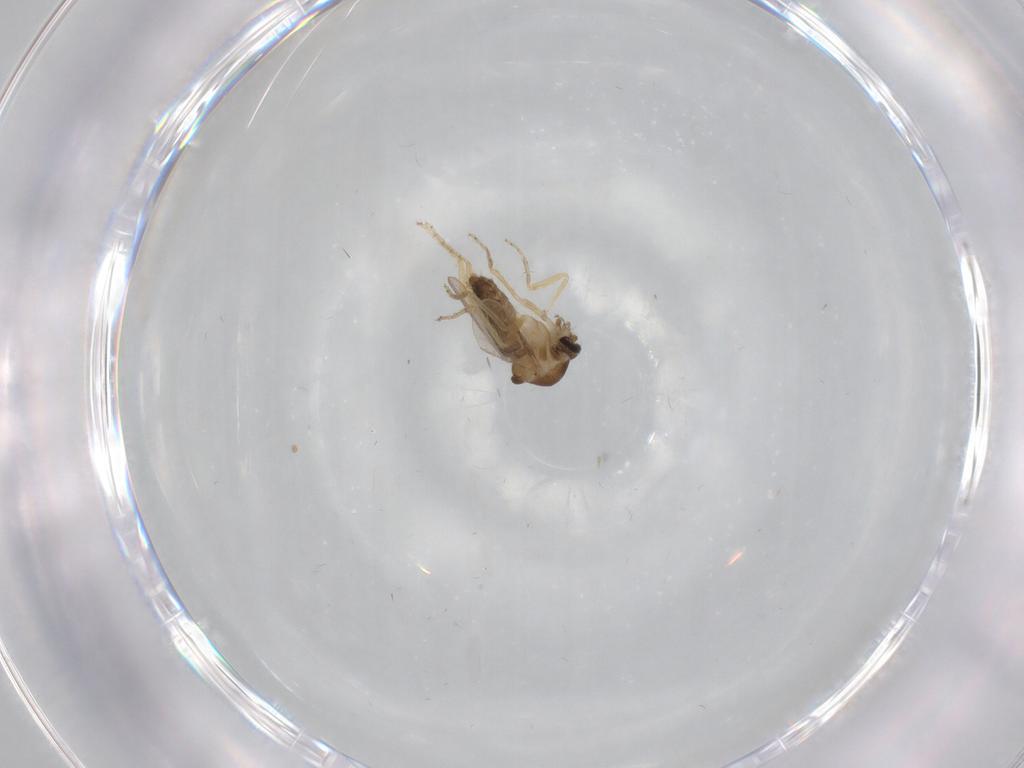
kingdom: Animalia
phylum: Arthropoda
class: Insecta
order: Diptera
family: Ceratopogonidae
